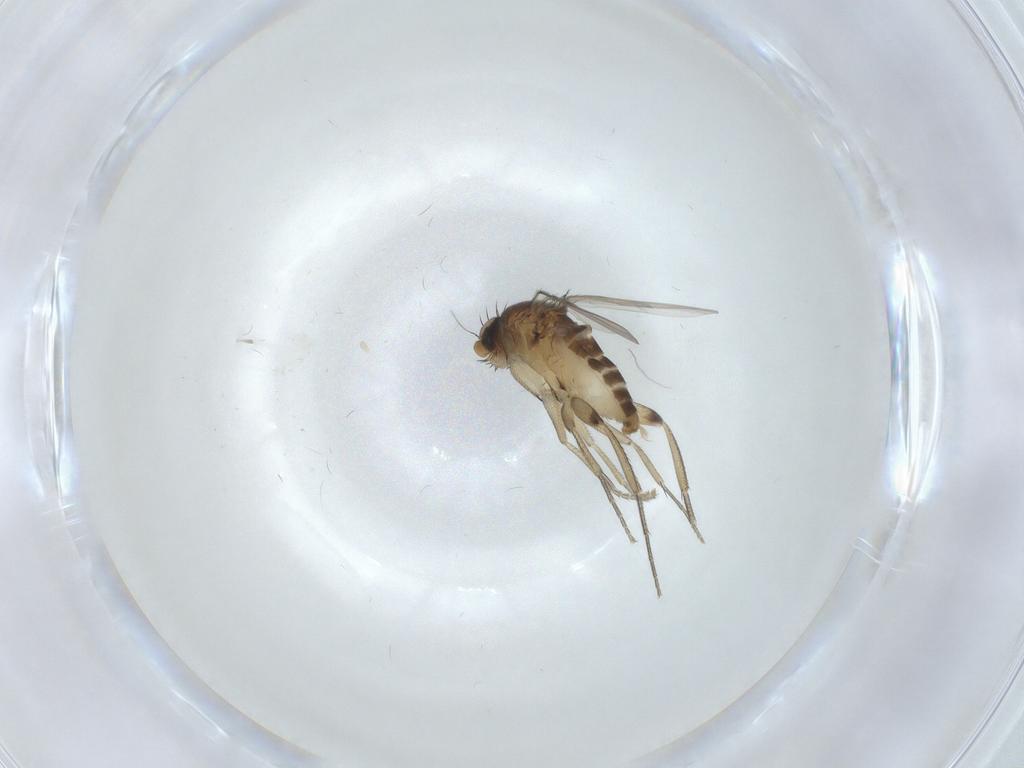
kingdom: Animalia
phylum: Arthropoda
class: Insecta
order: Diptera
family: Phoridae
